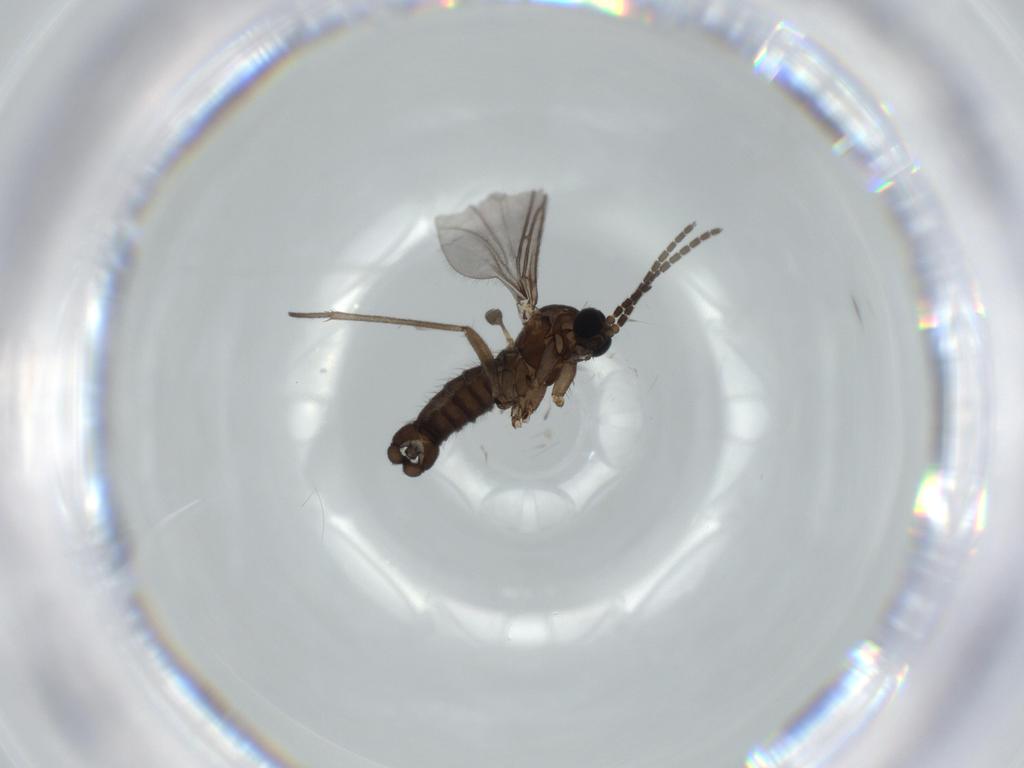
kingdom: Animalia
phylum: Arthropoda
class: Insecta
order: Diptera
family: Sciaridae
